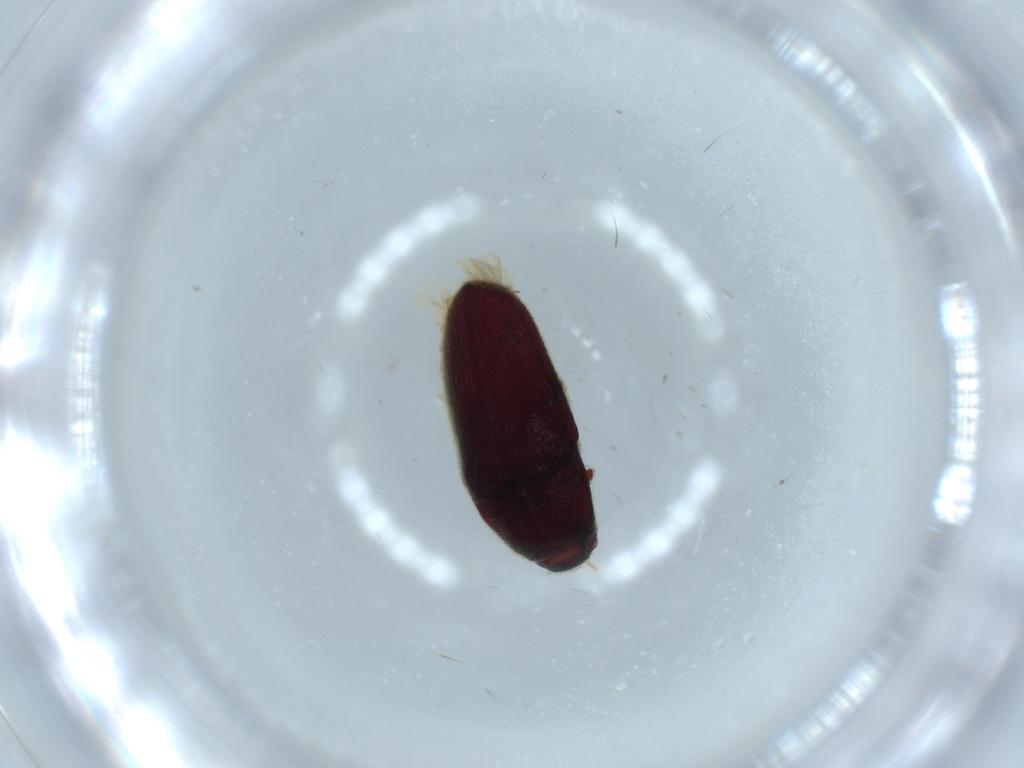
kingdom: Animalia
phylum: Arthropoda
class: Insecta
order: Coleoptera
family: Throscidae
